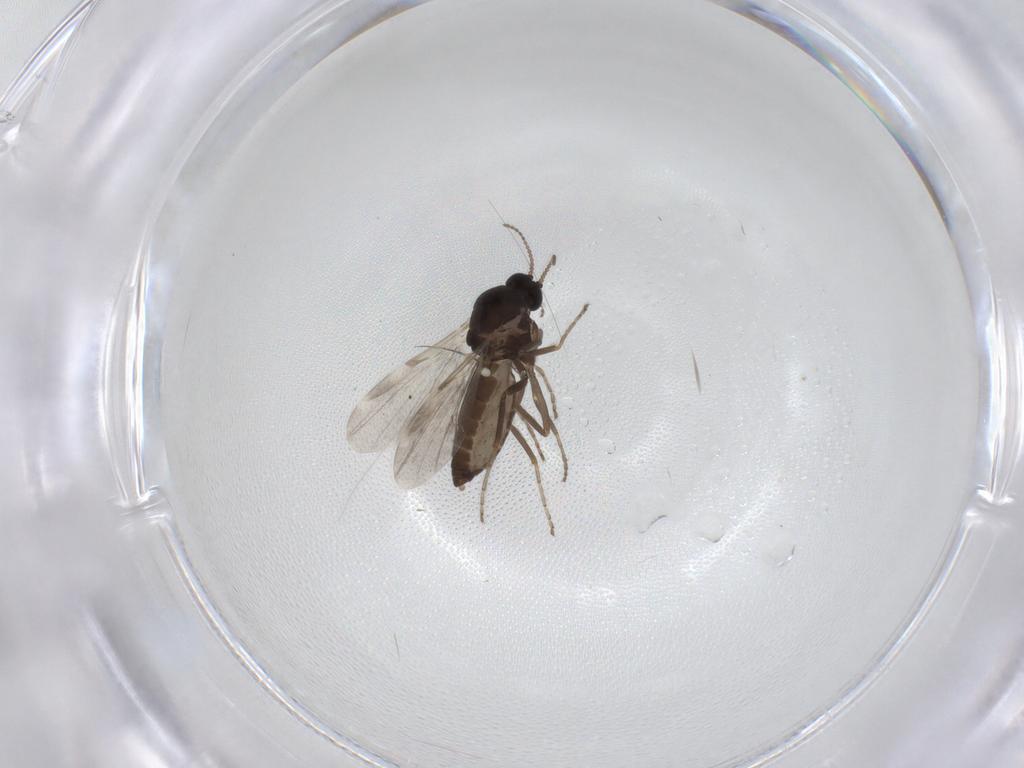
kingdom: Animalia
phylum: Arthropoda
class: Insecta
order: Diptera
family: Ceratopogonidae
